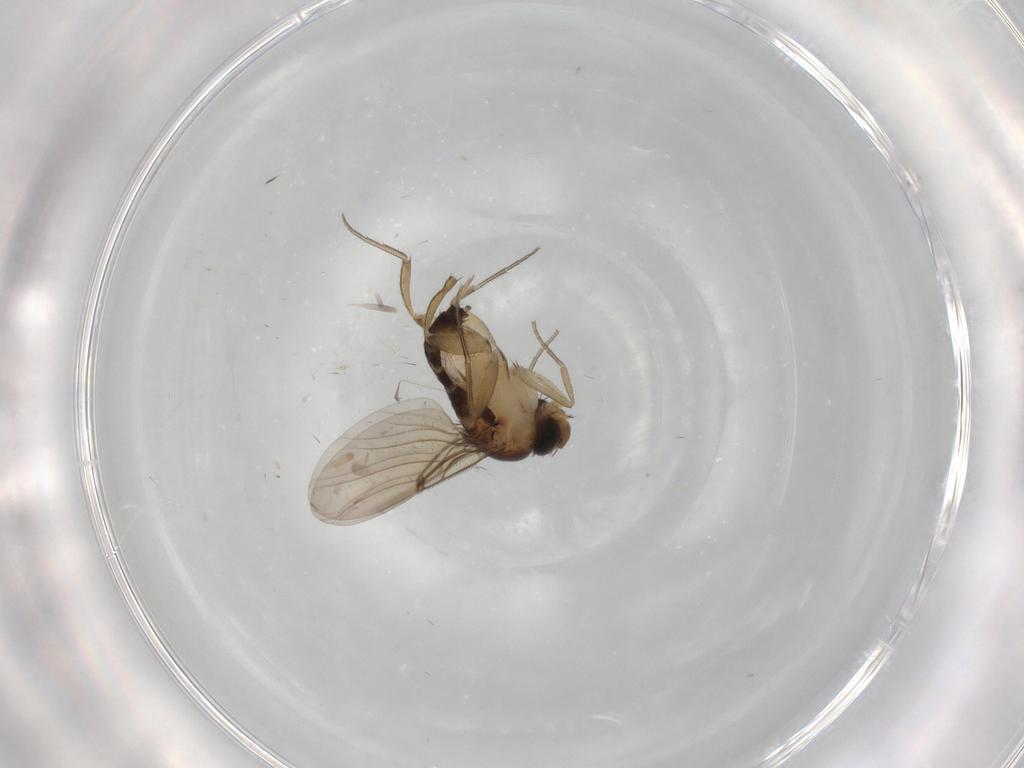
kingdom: Animalia
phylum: Arthropoda
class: Insecta
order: Diptera
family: Phoridae
